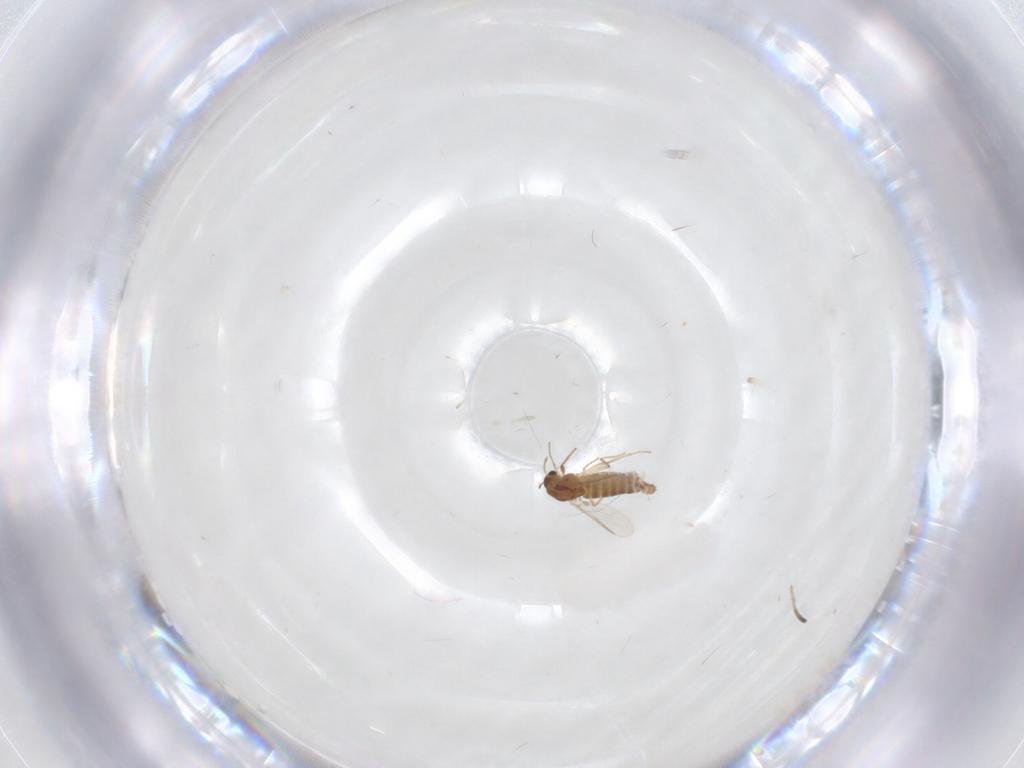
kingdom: Animalia
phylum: Arthropoda
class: Insecta
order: Diptera
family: Chironomidae
